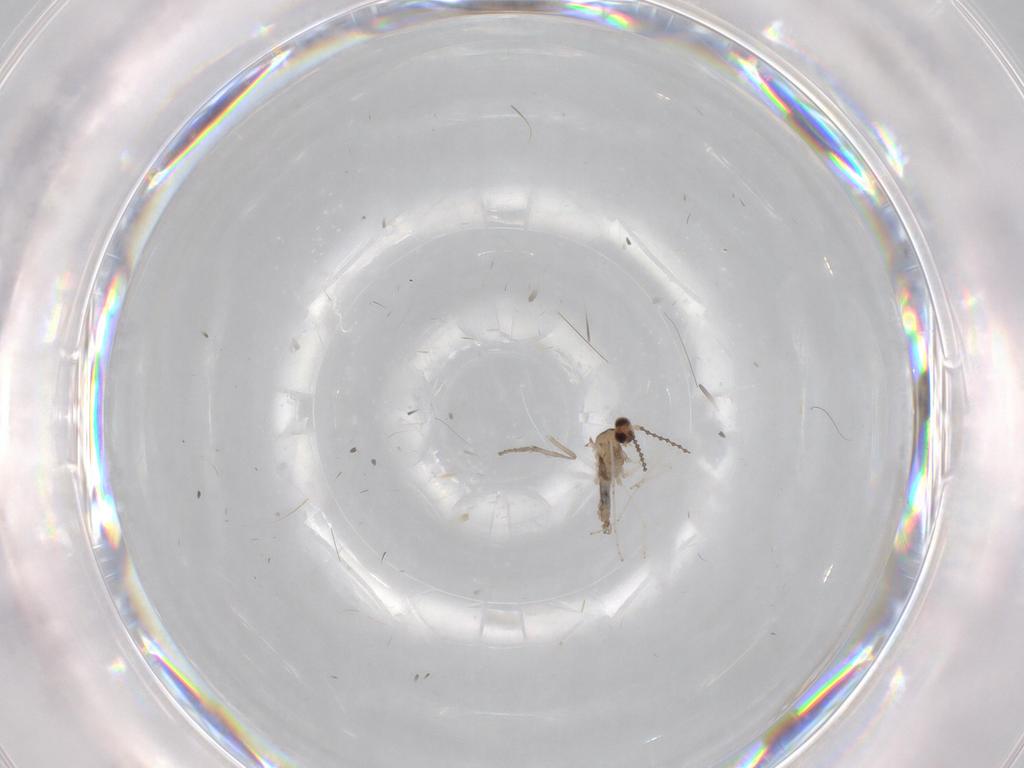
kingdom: Animalia
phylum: Arthropoda
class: Insecta
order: Diptera
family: Cecidomyiidae
